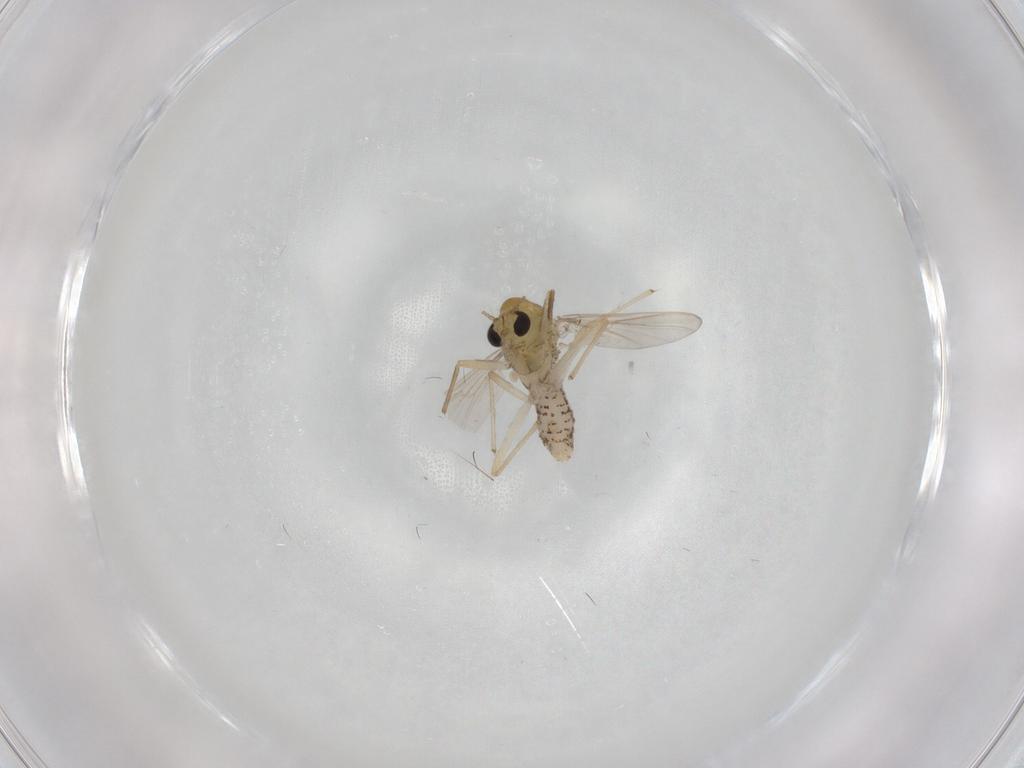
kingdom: Animalia
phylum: Arthropoda
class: Insecta
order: Diptera
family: Chironomidae
